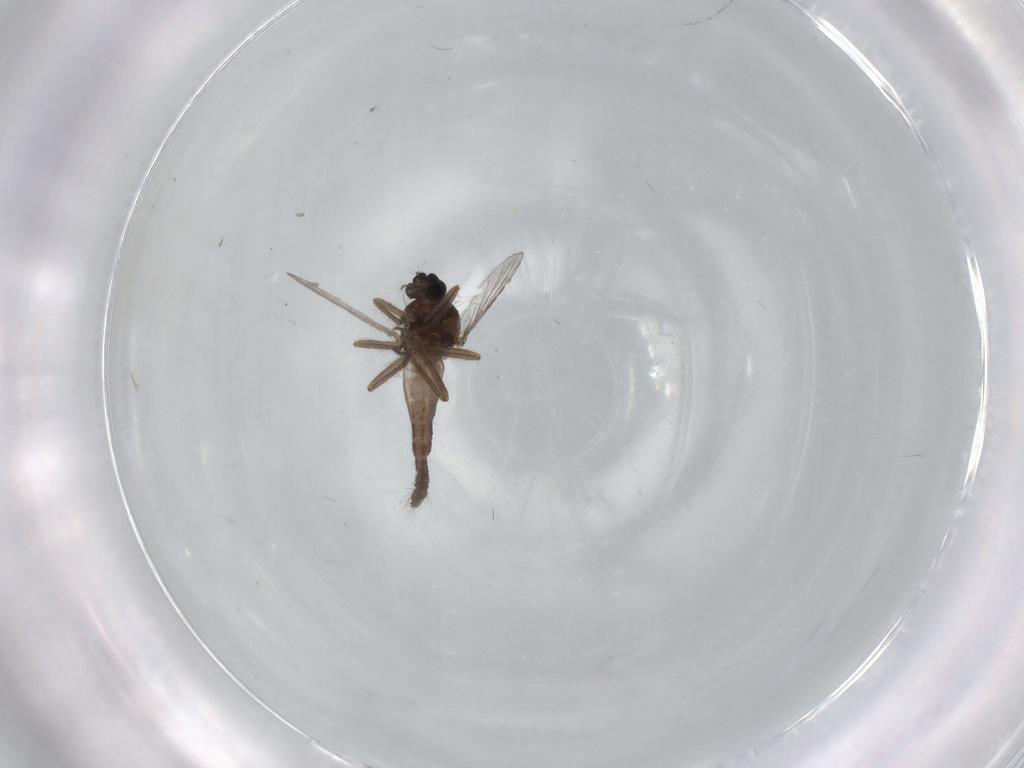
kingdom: Animalia
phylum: Arthropoda
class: Insecta
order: Diptera
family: Ceratopogonidae
